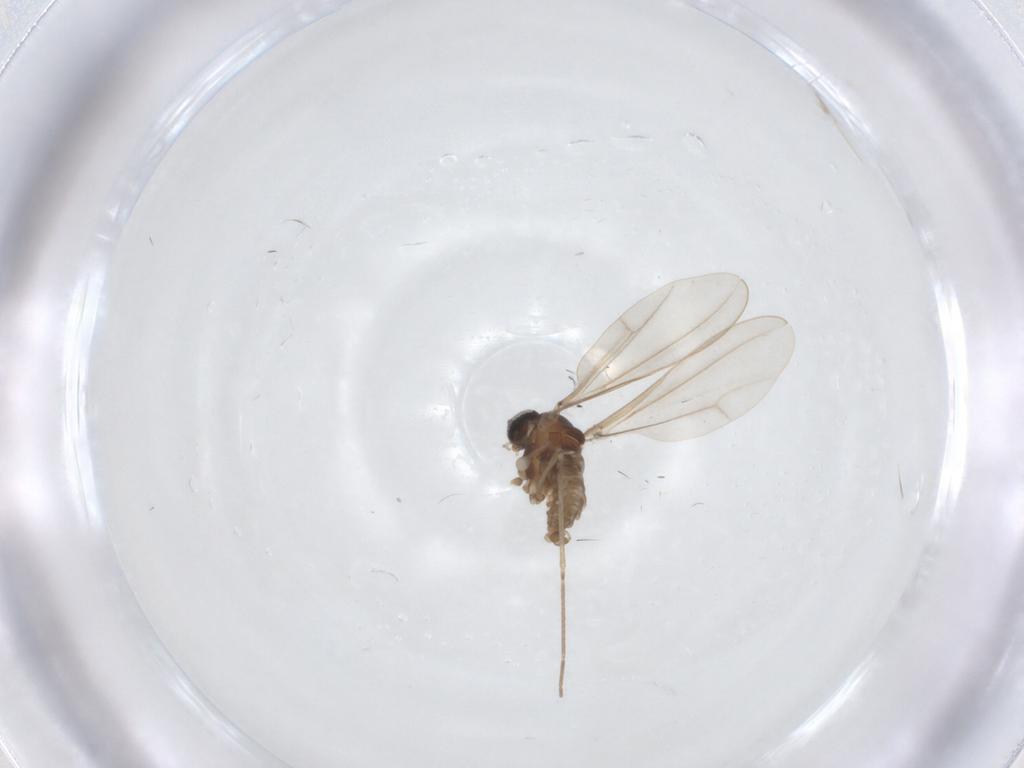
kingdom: Animalia
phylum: Arthropoda
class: Insecta
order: Diptera
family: Cecidomyiidae
